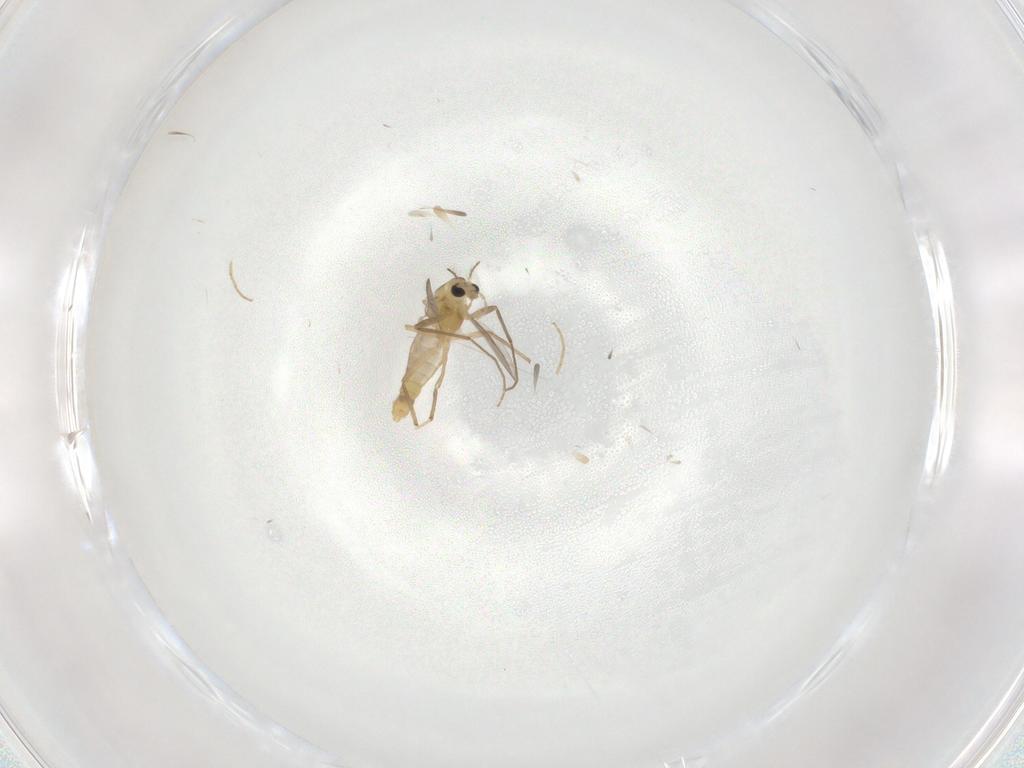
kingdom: Animalia
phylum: Arthropoda
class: Insecta
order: Diptera
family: Chironomidae
